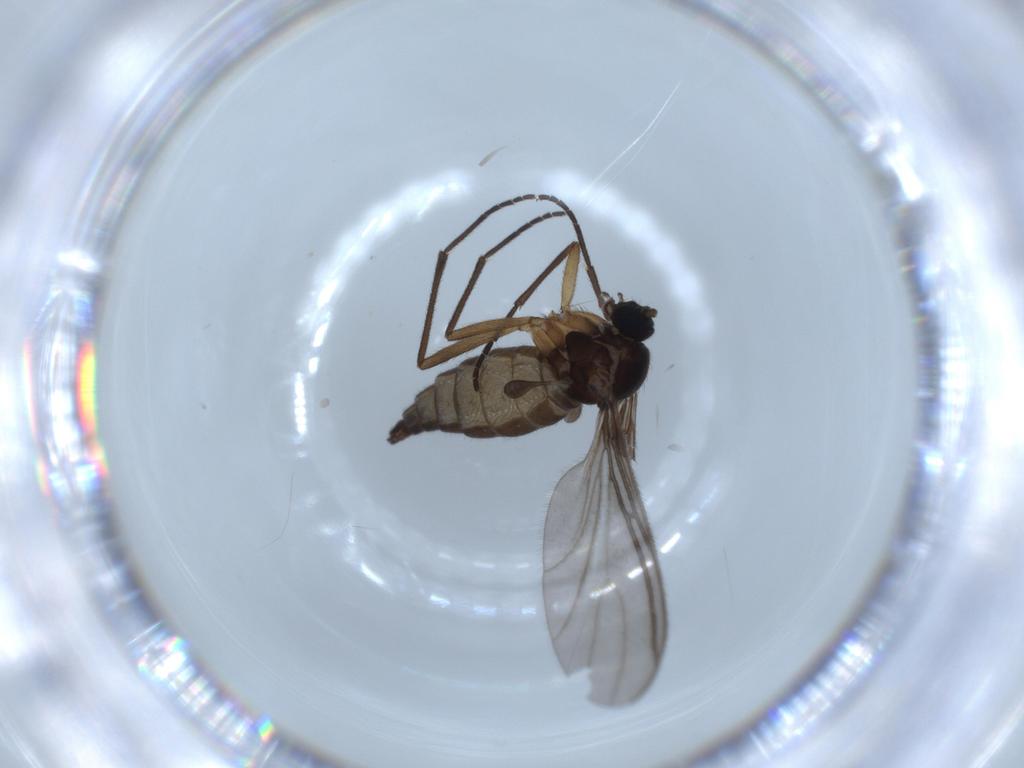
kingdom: Animalia
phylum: Arthropoda
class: Insecta
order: Diptera
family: Sciaridae
